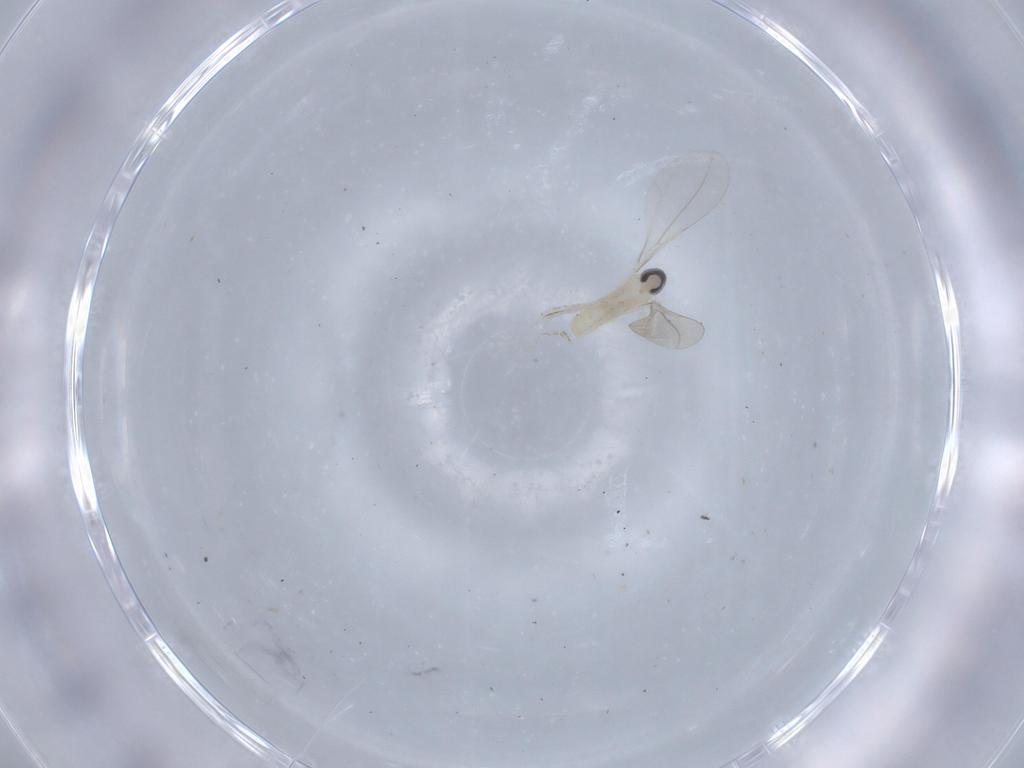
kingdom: Animalia
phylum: Arthropoda
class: Insecta
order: Diptera
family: Cecidomyiidae
